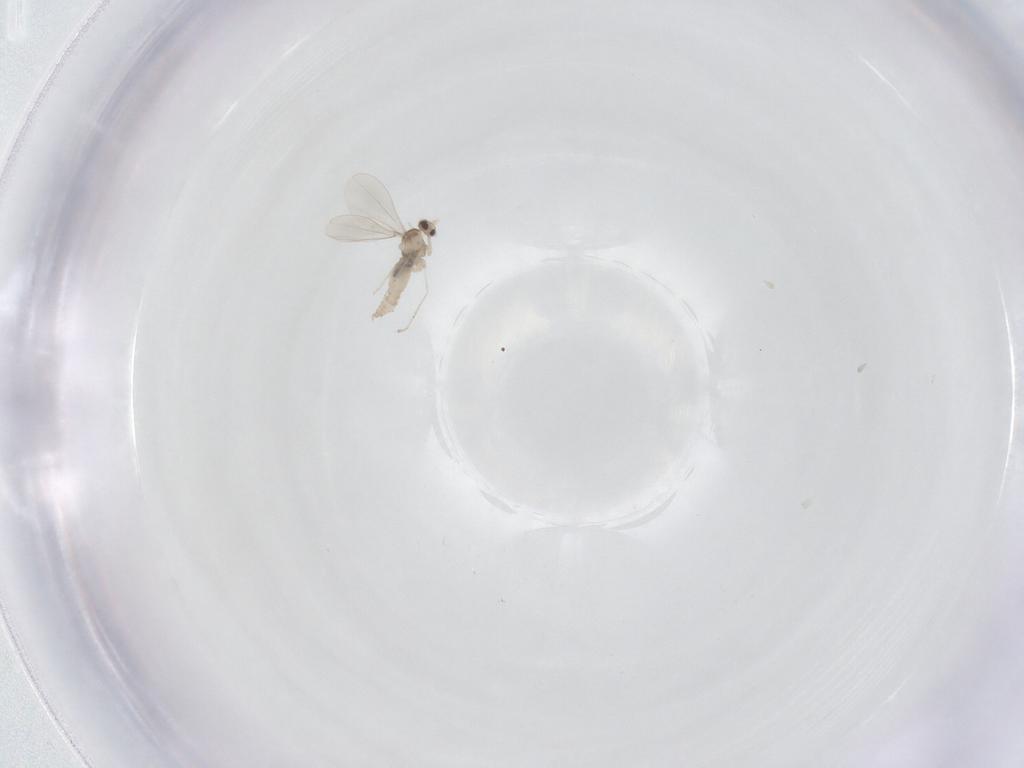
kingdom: Animalia
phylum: Arthropoda
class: Insecta
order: Diptera
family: Cecidomyiidae
